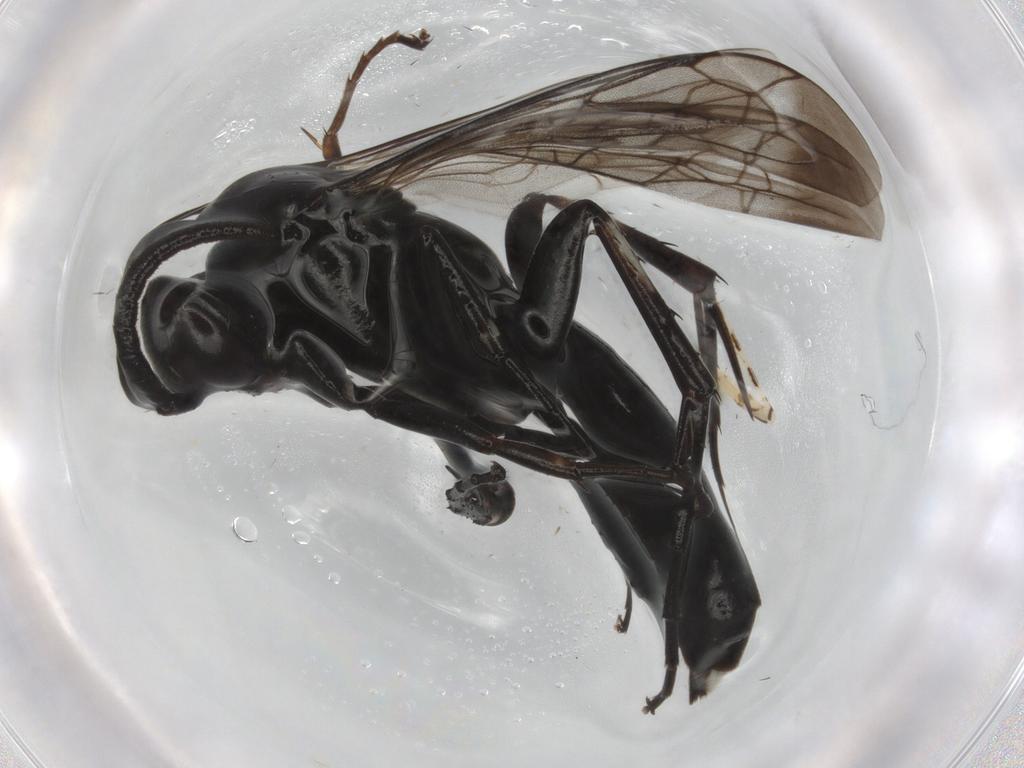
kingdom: Animalia
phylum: Arthropoda
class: Insecta
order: Hymenoptera
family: Pompilidae
